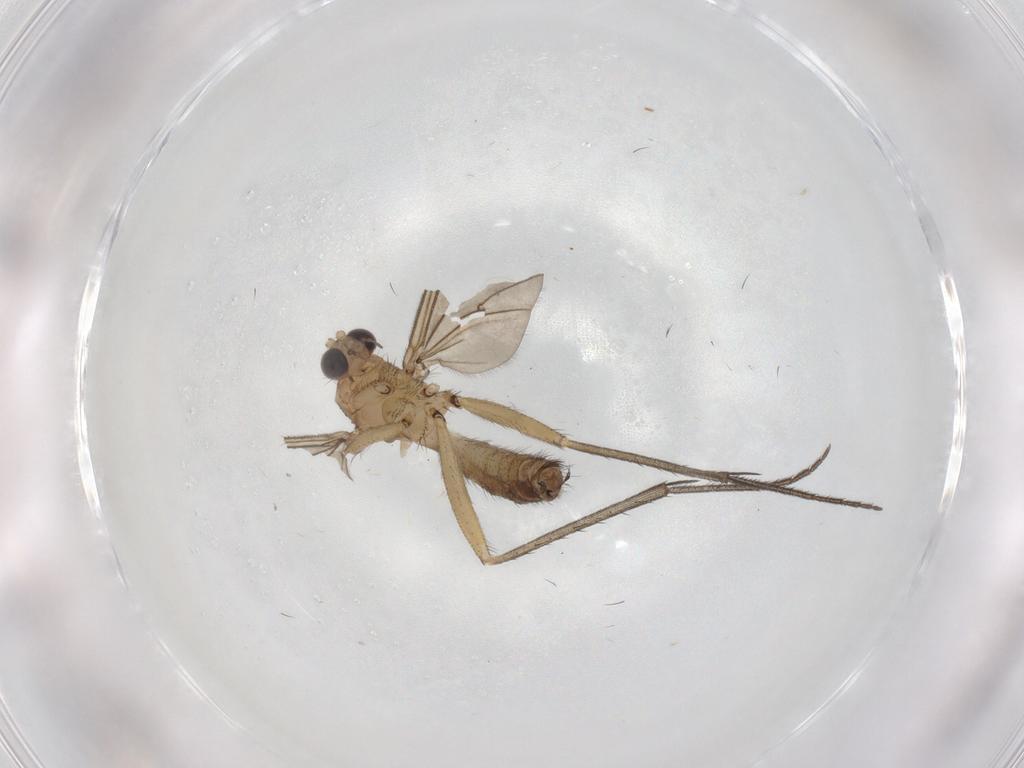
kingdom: Animalia
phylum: Arthropoda
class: Insecta
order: Diptera
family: Mycetophilidae
